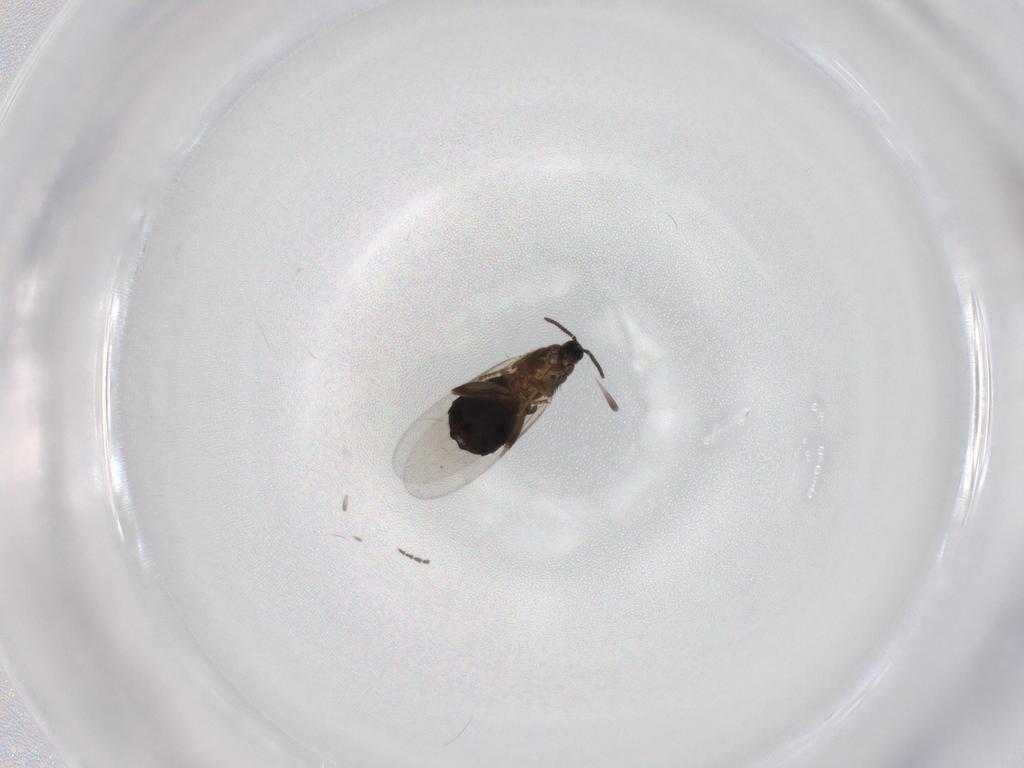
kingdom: Animalia
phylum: Arthropoda
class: Insecta
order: Diptera
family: Scatopsidae
